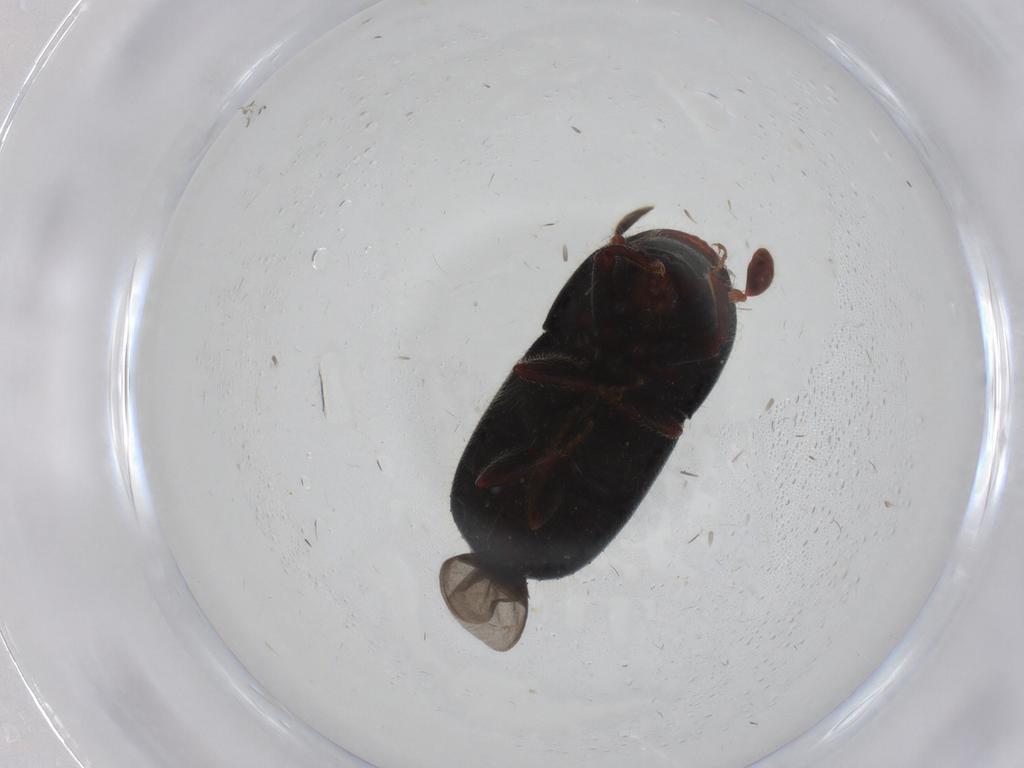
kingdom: Animalia
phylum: Arthropoda
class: Insecta
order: Coleoptera
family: Curculionidae
